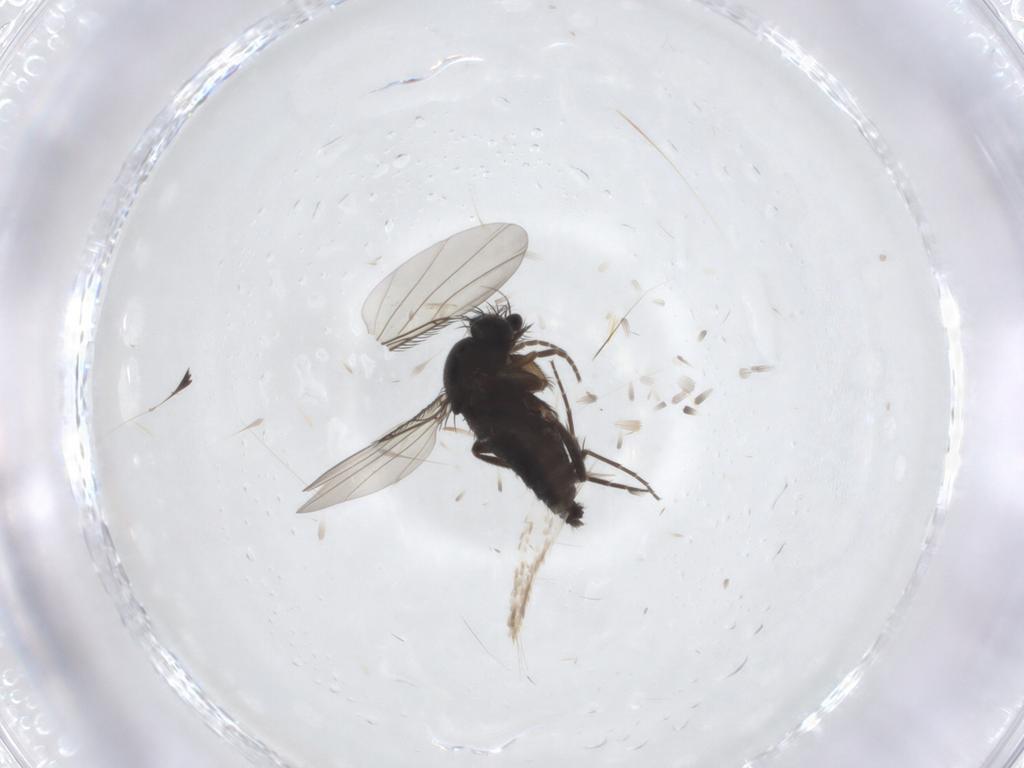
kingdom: Animalia
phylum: Arthropoda
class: Insecta
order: Diptera
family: Phoridae
